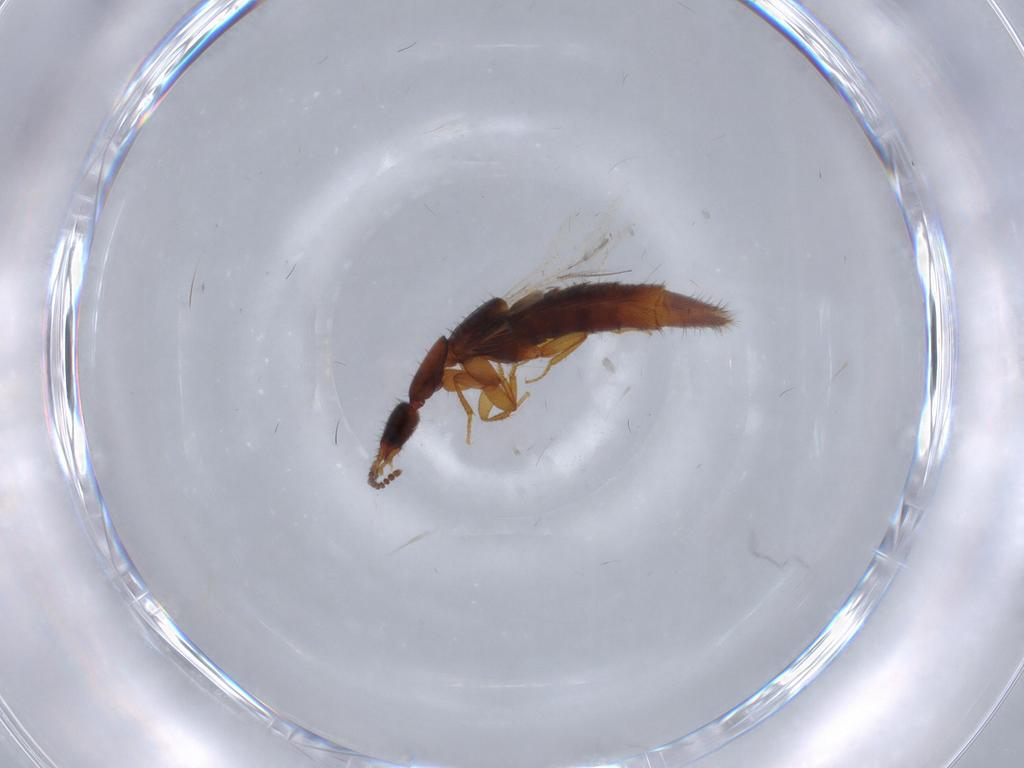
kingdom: Animalia
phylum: Arthropoda
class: Insecta
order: Coleoptera
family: Staphylinidae
